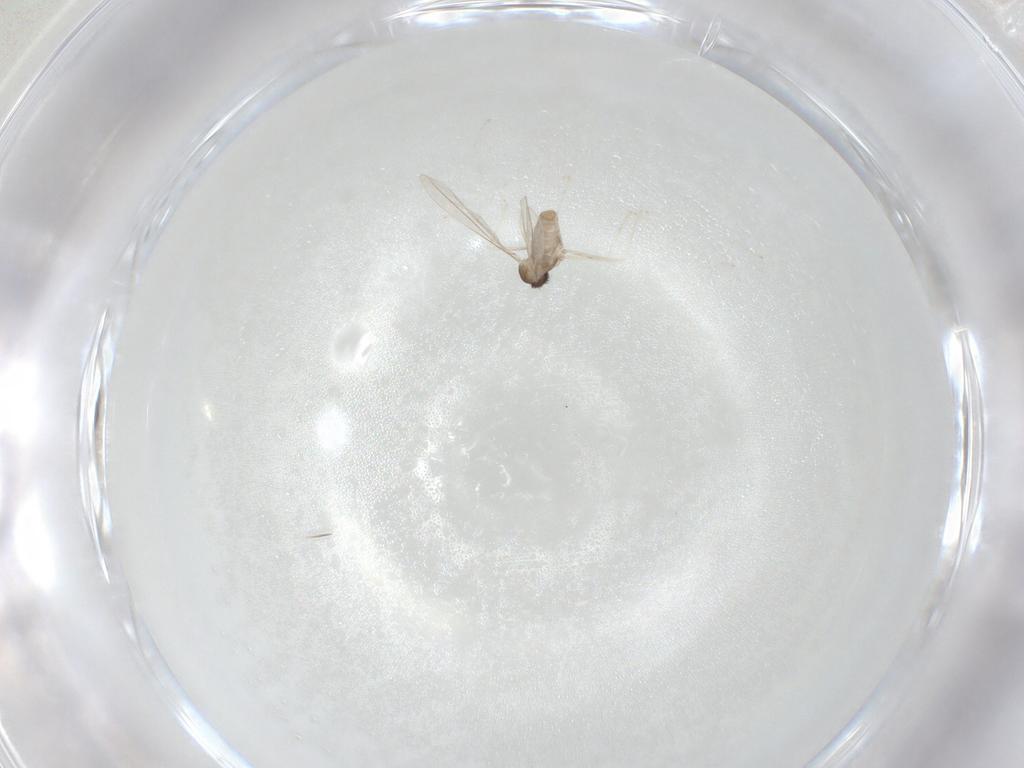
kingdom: Animalia
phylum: Arthropoda
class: Insecta
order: Diptera
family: Cecidomyiidae
